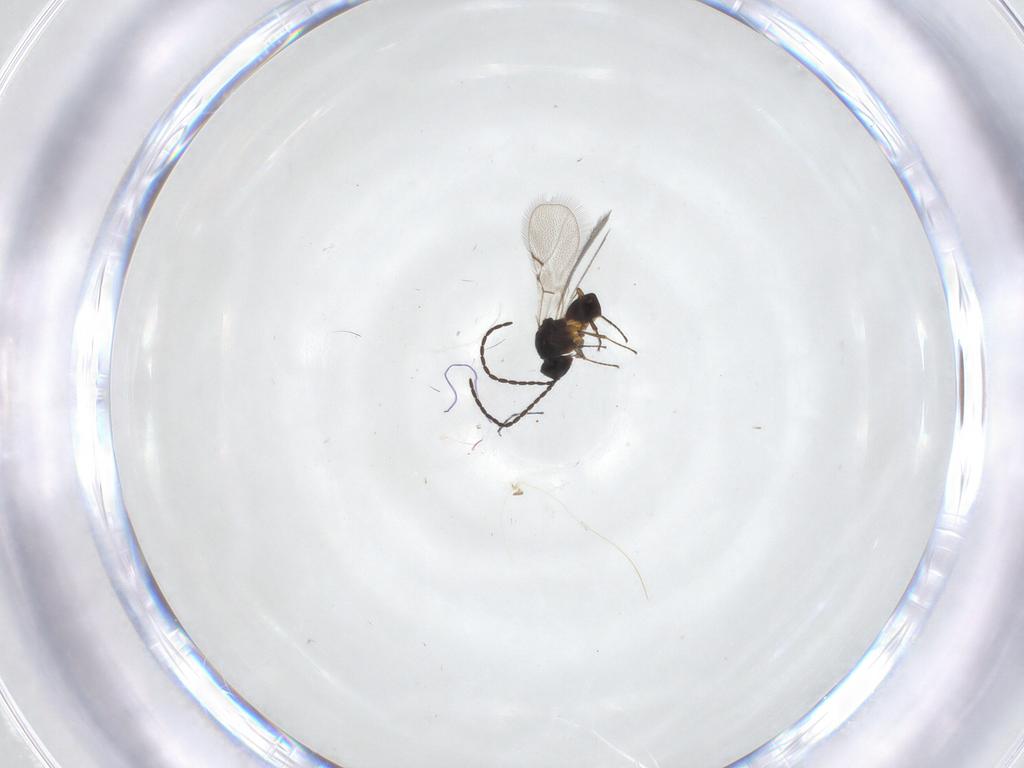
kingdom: Animalia
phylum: Arthropoda
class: Insecta
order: Hymenoptera
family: Figitidae
